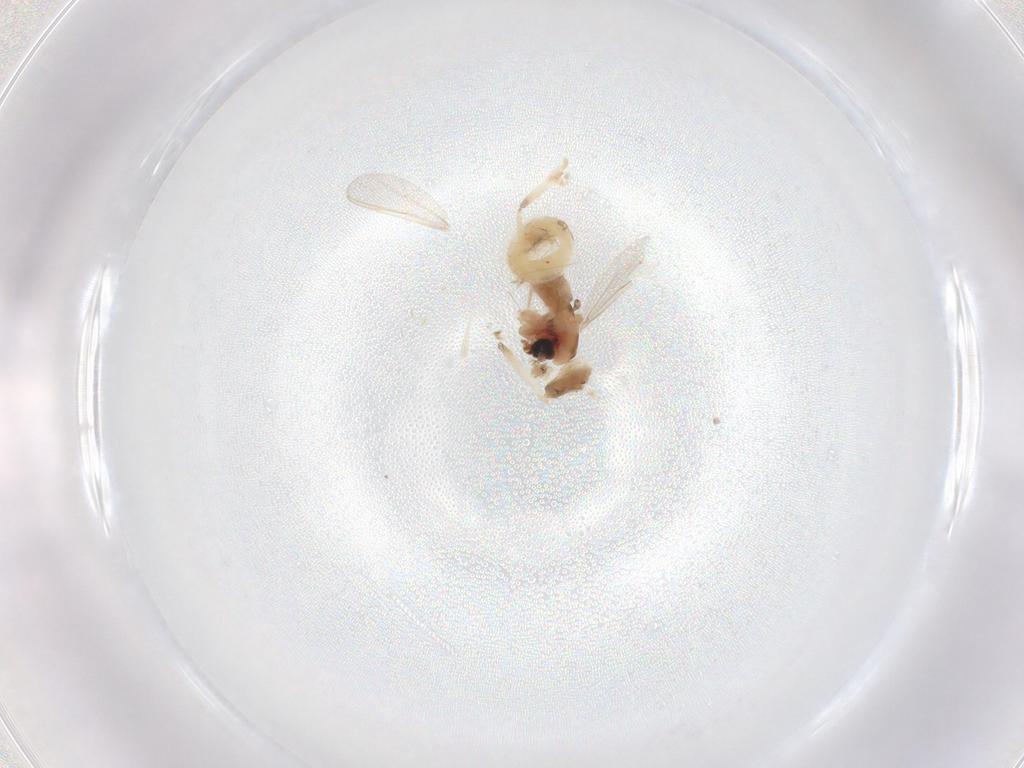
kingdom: Animalia
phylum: Arthropoda
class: Insecta
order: Diptera
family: Chironomidae
